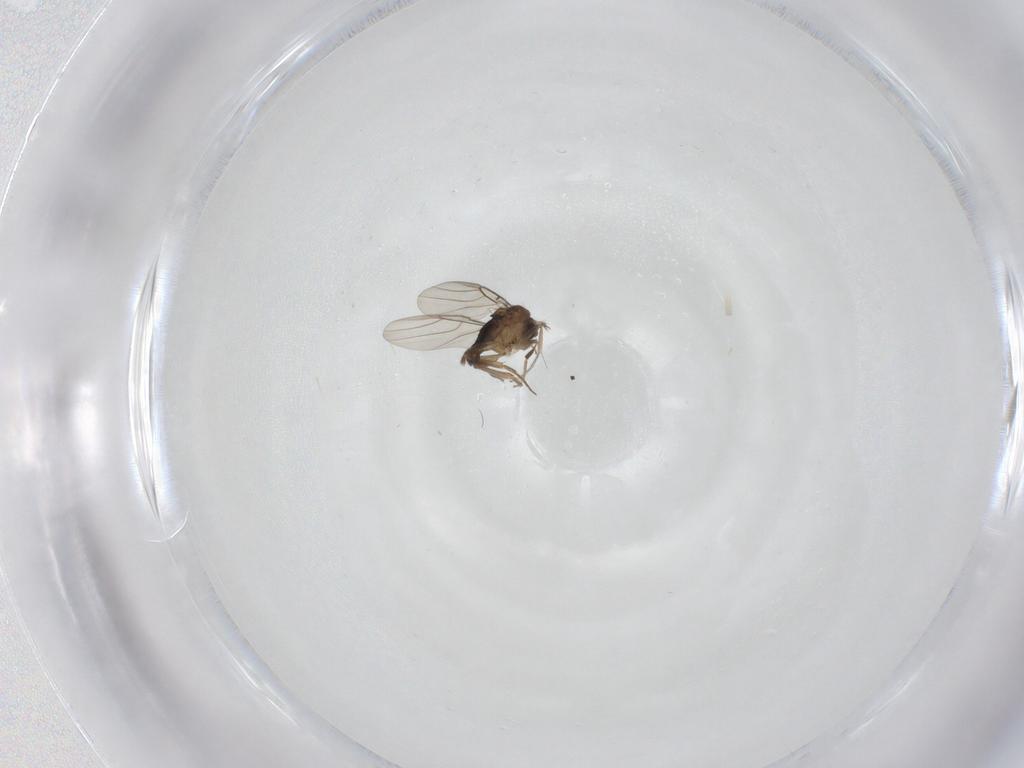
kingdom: Animalia
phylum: Arthropoda
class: Insecta
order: Diptera
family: Phoridae
